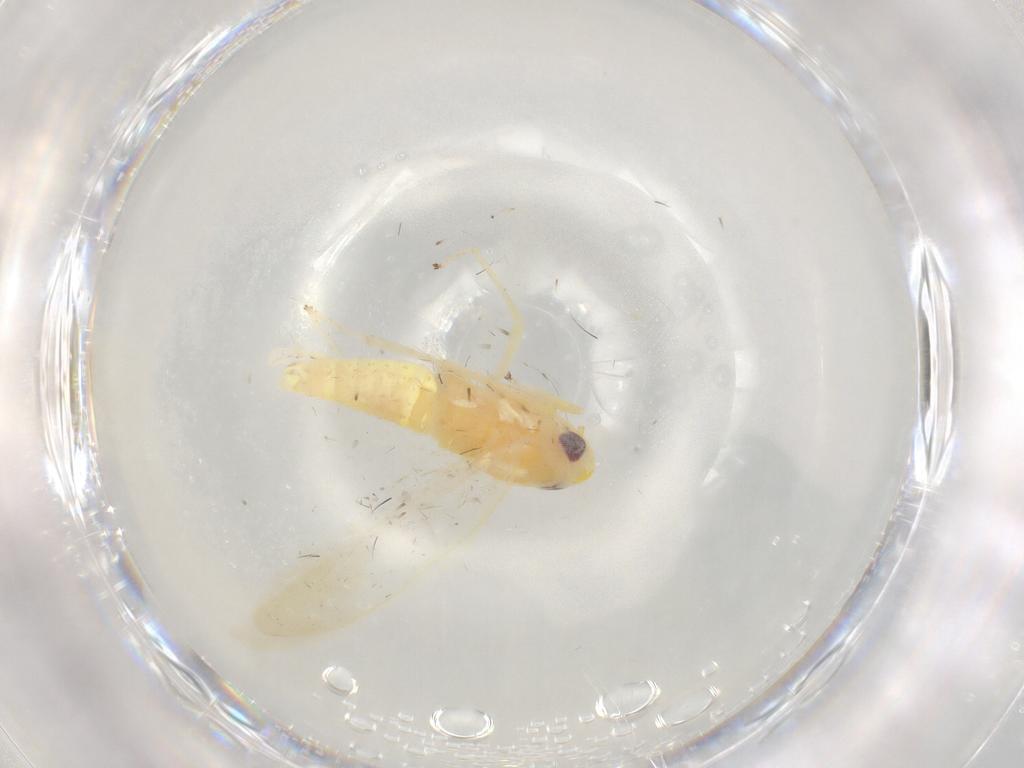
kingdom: Animalia
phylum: Arthropoda
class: Insecta
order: Hemiptera
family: Cicadellidae
